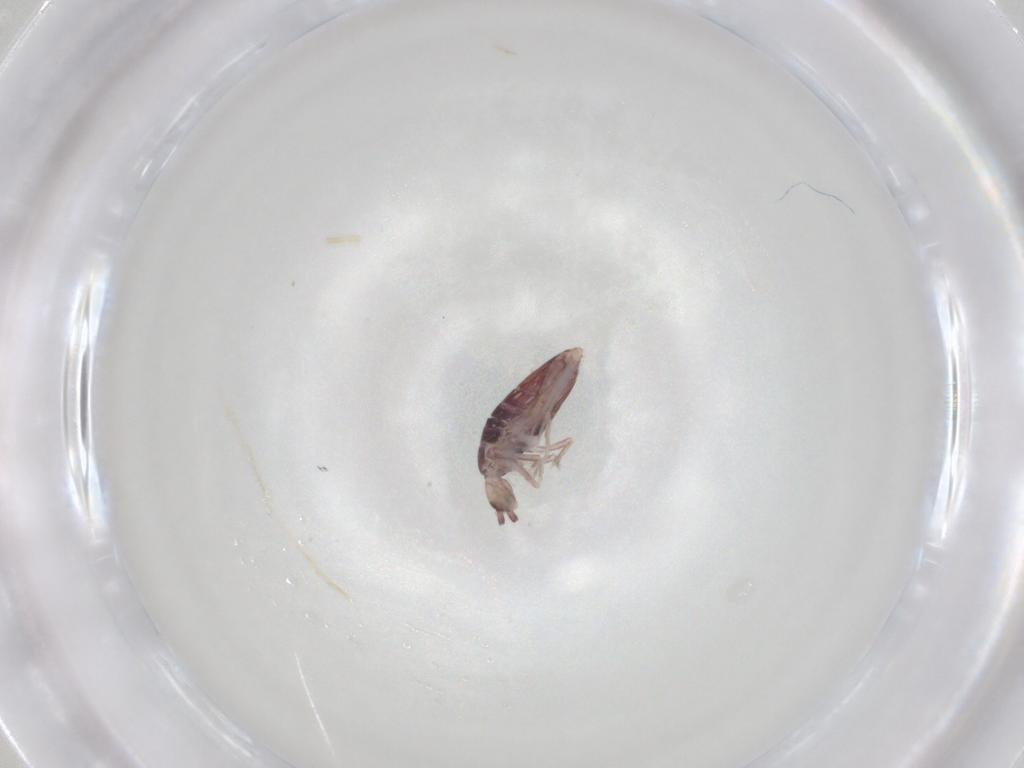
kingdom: Animalia
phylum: Arthropoda
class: Collembola
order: Entomobryomorpha
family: Entomobryidae
